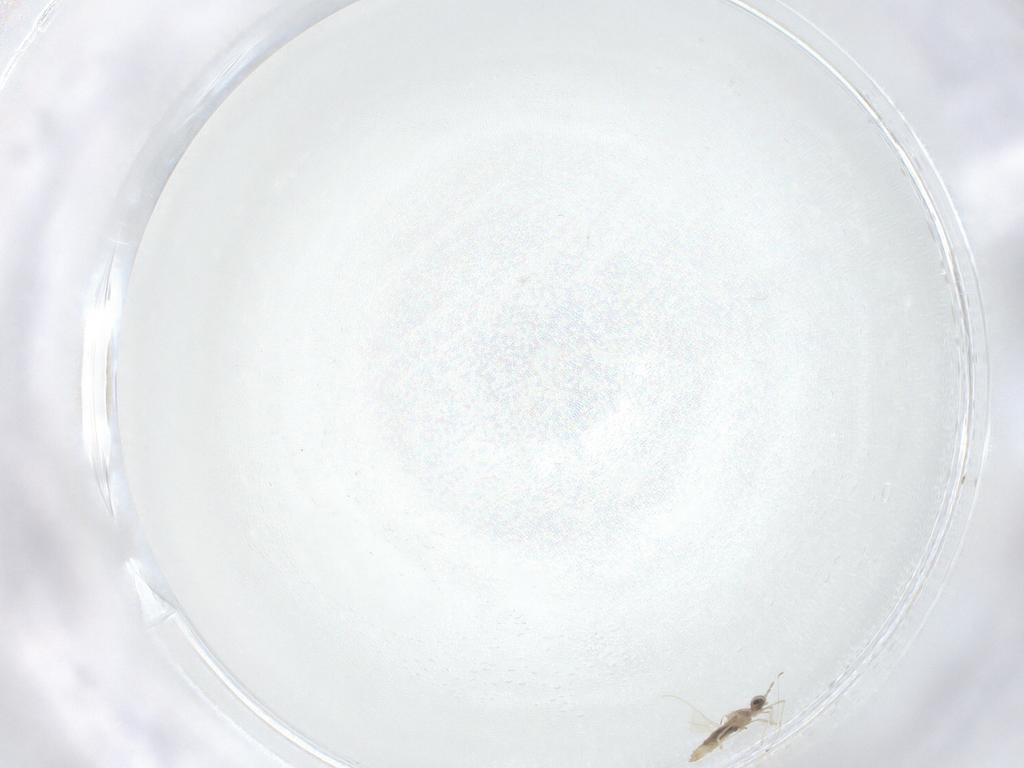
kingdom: Animalia
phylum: Arthropoda
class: Insecta
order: Diptera
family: Cecidomyiidae
